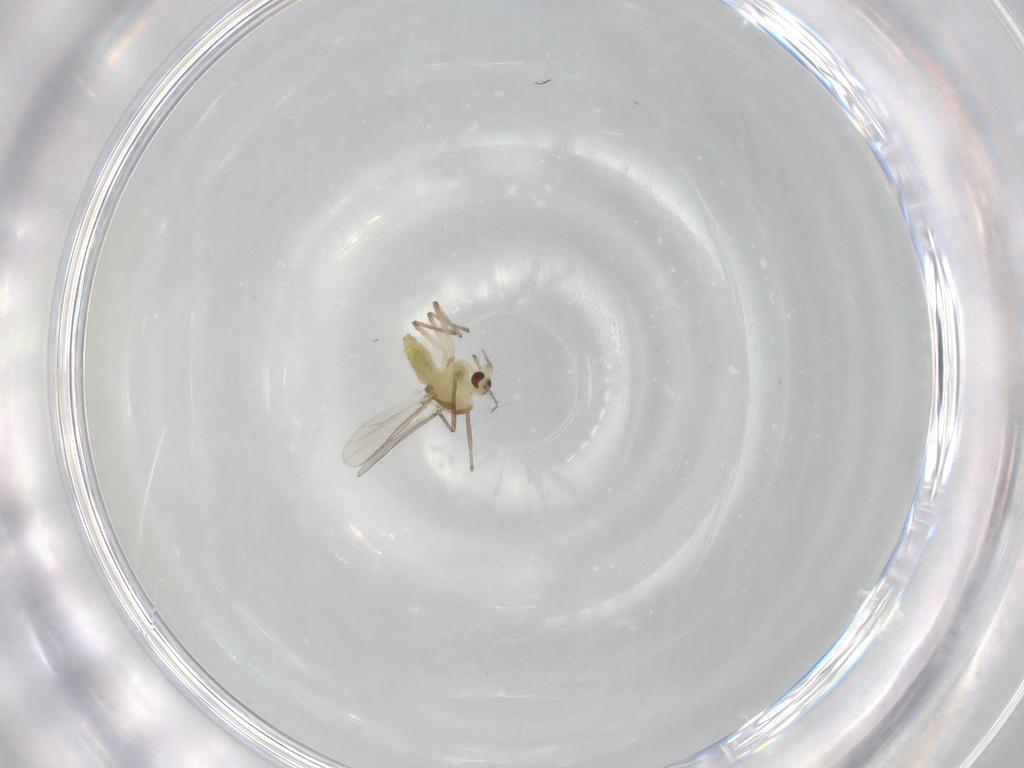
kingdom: Animalia
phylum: Arthropoda
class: Insecta
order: Diptera
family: Chironomidae
